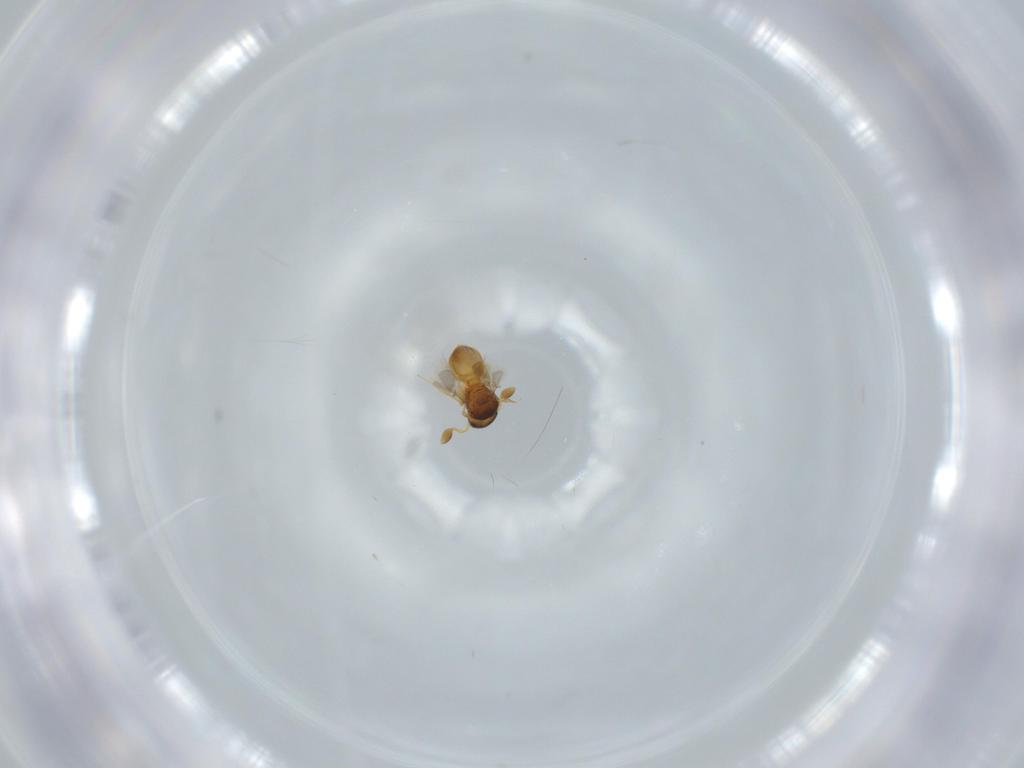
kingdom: Animalia
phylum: Arthropoda
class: Insecta
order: Hymenoptera
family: Scelionidae
